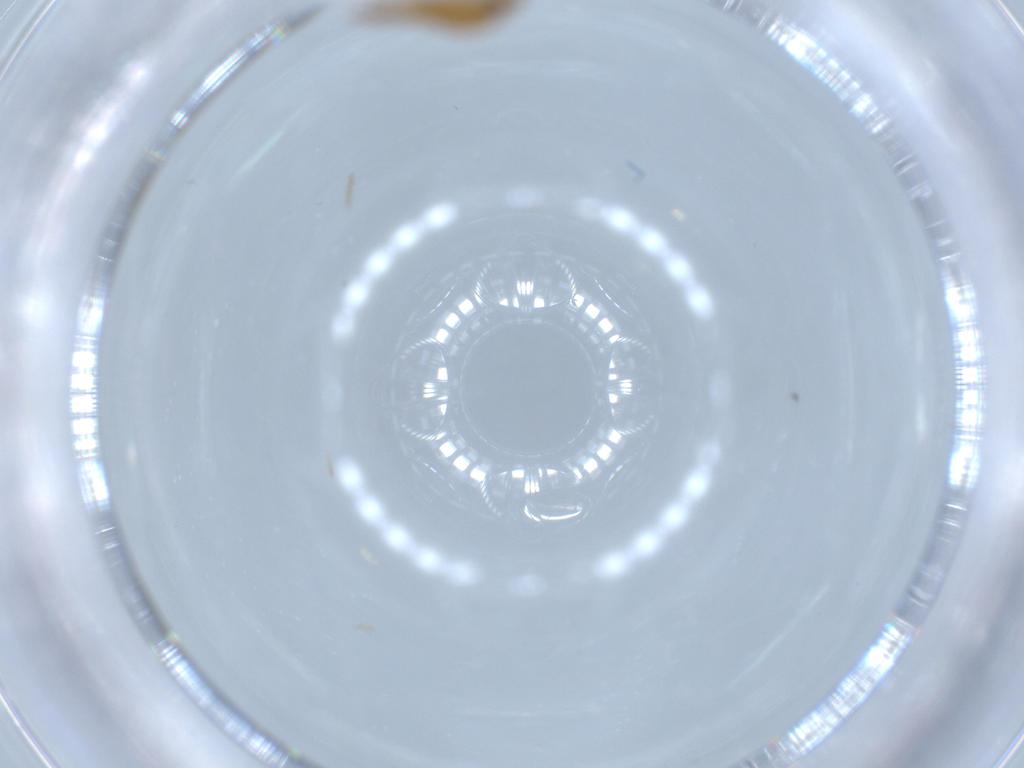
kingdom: Animalia
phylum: Arthropoda
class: Insecta
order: Hemiptera
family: Anthocoridae
